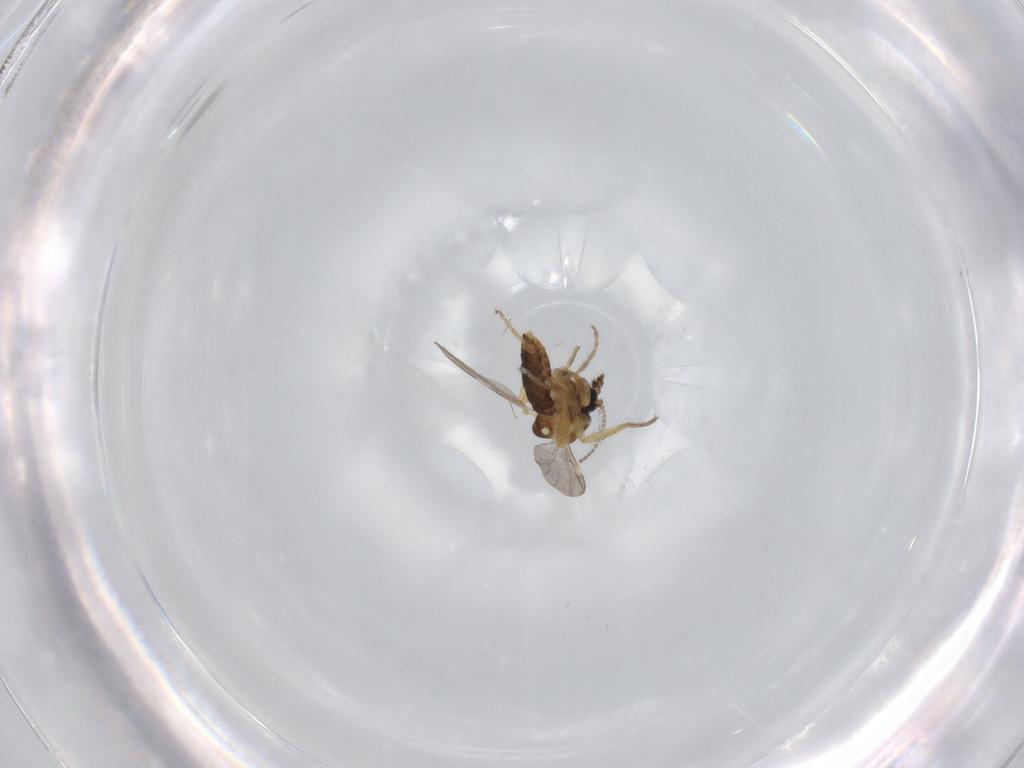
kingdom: Animalia
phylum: Arthropoda
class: Insecta
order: Diptera
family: Ceratopogonidae
